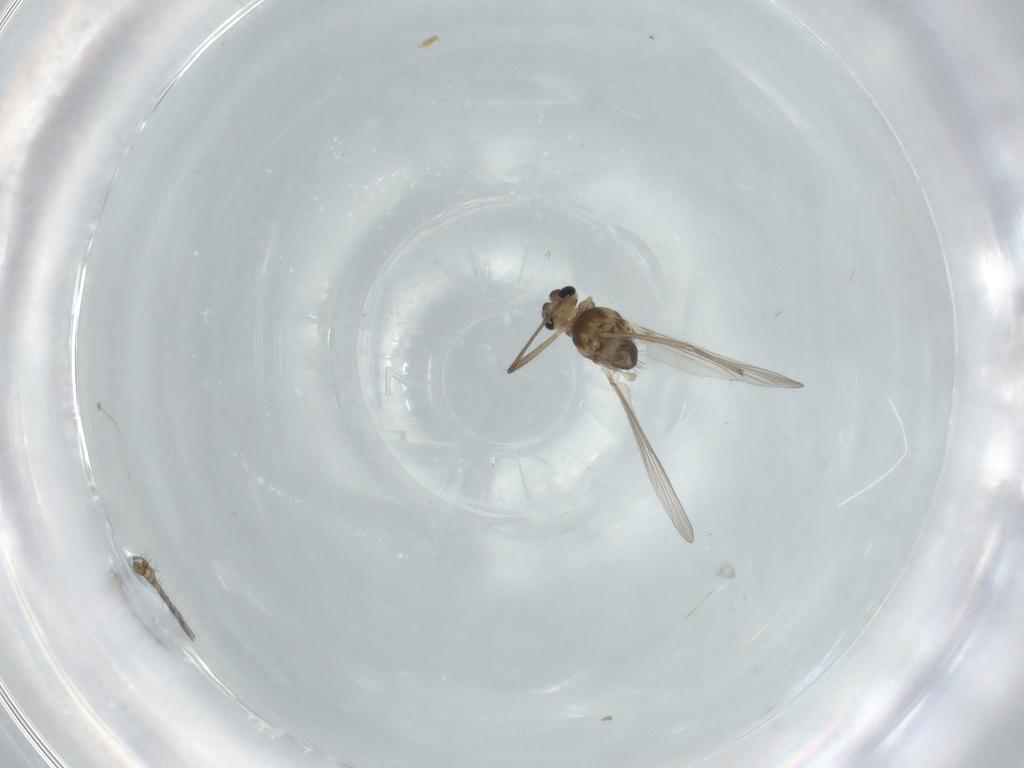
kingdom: Animalia
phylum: Arthropoda
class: Insecta
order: Diptera
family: Chironomidae
